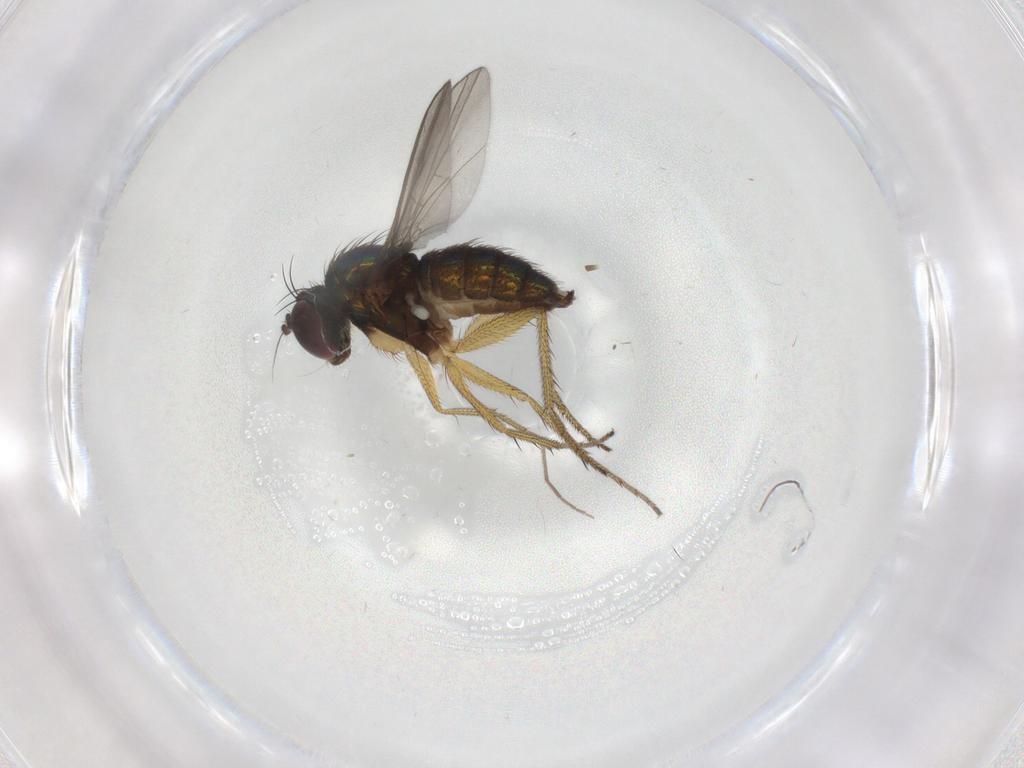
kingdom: Animalia
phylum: Arthropoda
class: Insecta
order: Diptera
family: Dolichopodidae
